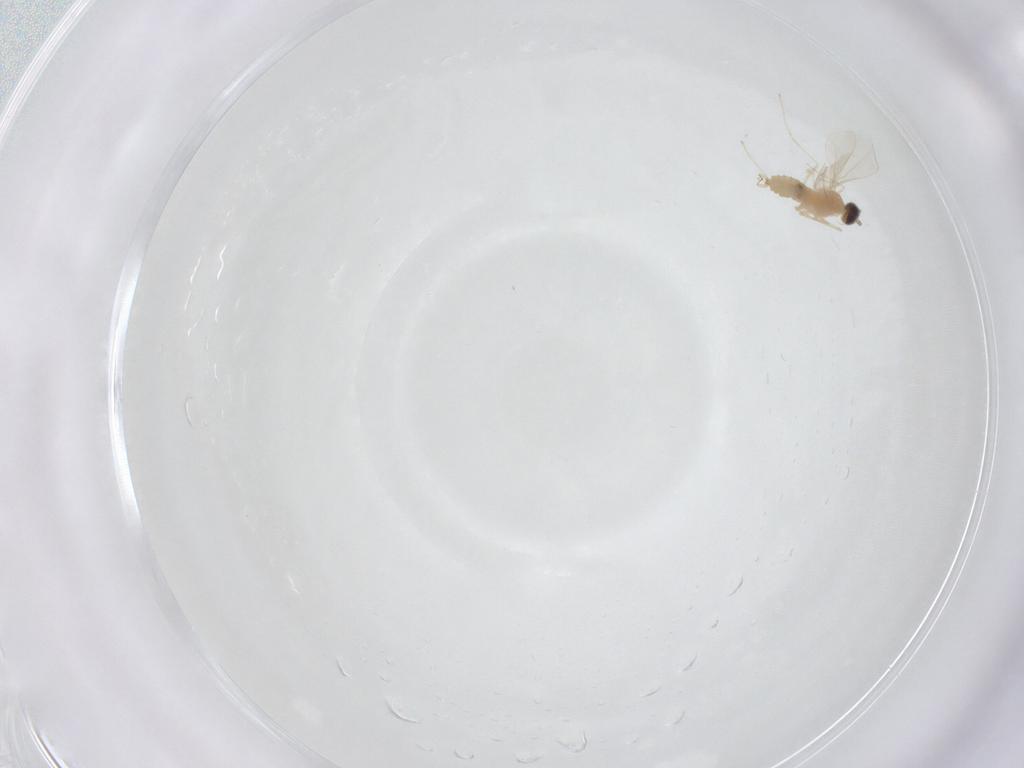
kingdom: Animalia
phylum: Arthropoda
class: Insecta
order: Diptera
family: Cecidomyiidae
